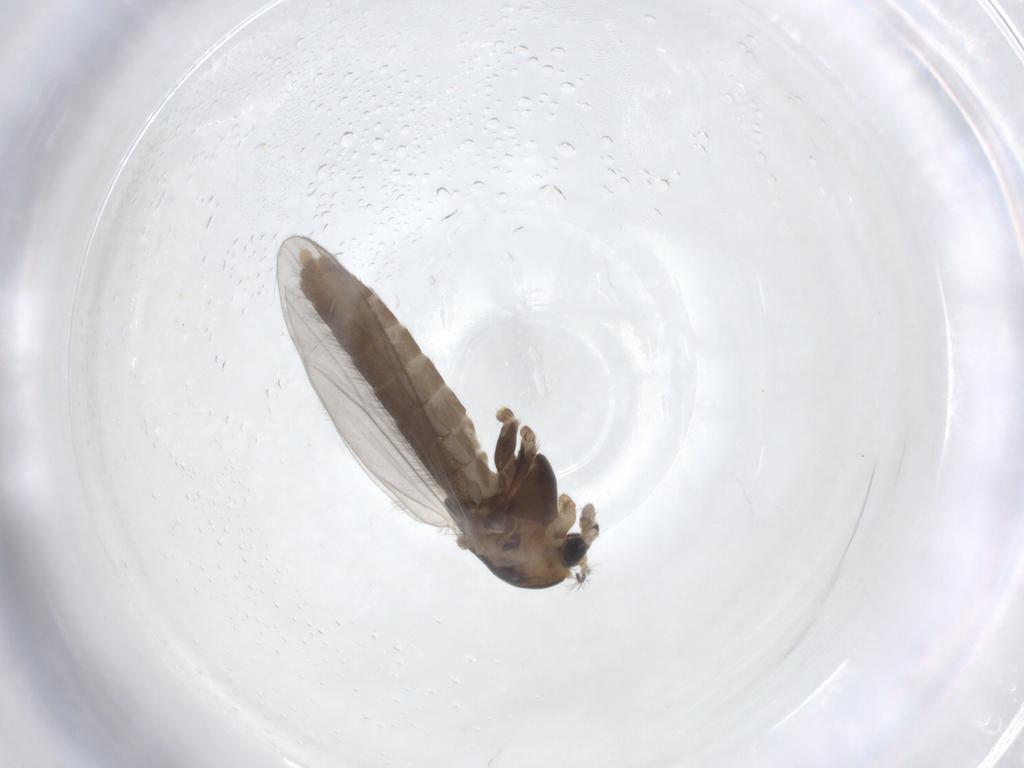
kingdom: Animalia
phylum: Arthropoda
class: Insecta
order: Diptera
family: Chironomidae
